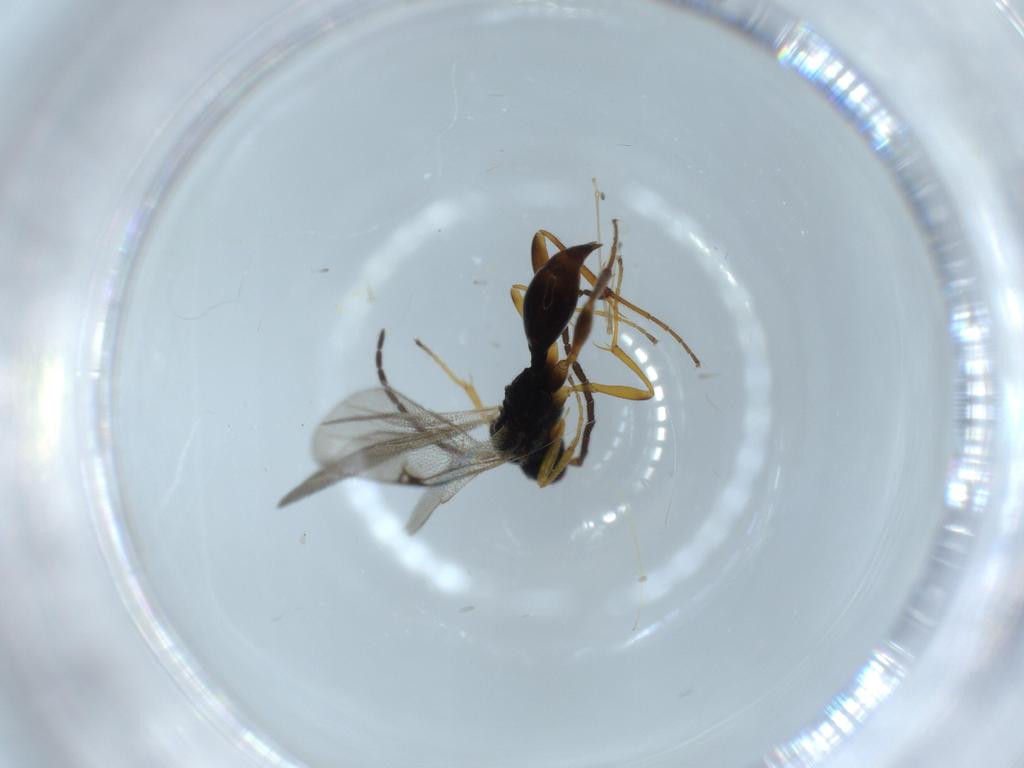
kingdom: Animalia
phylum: Arthropoda
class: Insecta
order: Hymenoptera
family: Proctotrupidae
